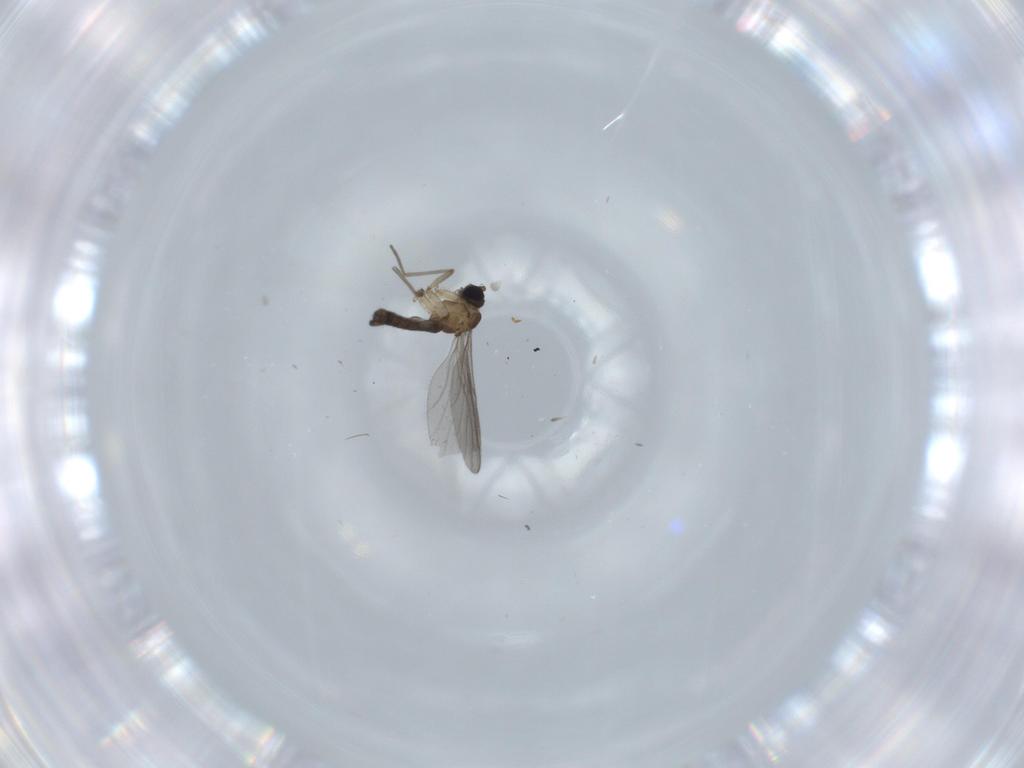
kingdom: Animalia
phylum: Arthropoda
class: Insecta
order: Diptera
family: Sciaridae
